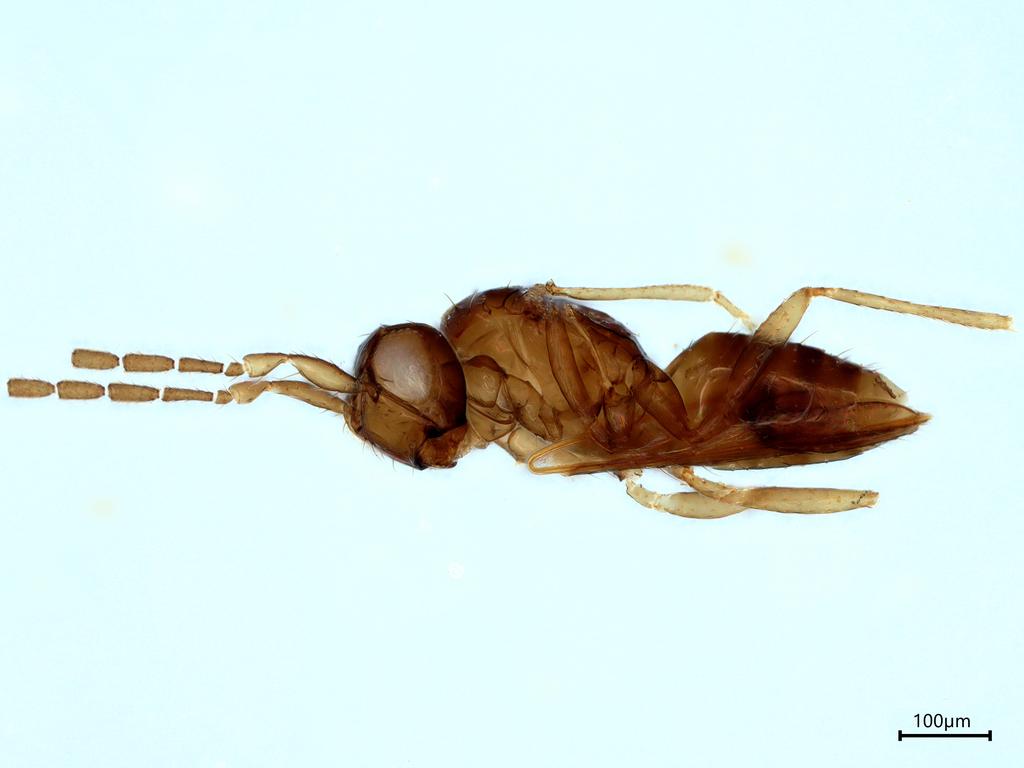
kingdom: Animalia
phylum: Arthropoda
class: Insecta
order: Hymenoptera
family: Mymaridae
